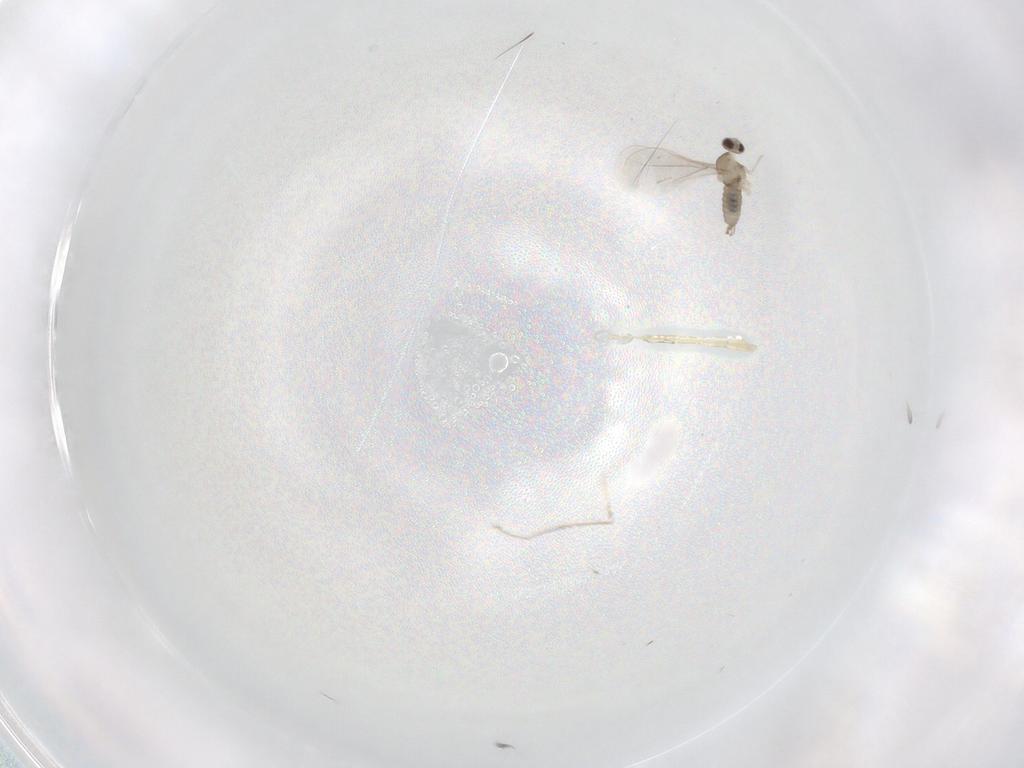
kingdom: Animalia
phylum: Arthropoda
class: Insecta
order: Diptera
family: Cecidomyiidae
